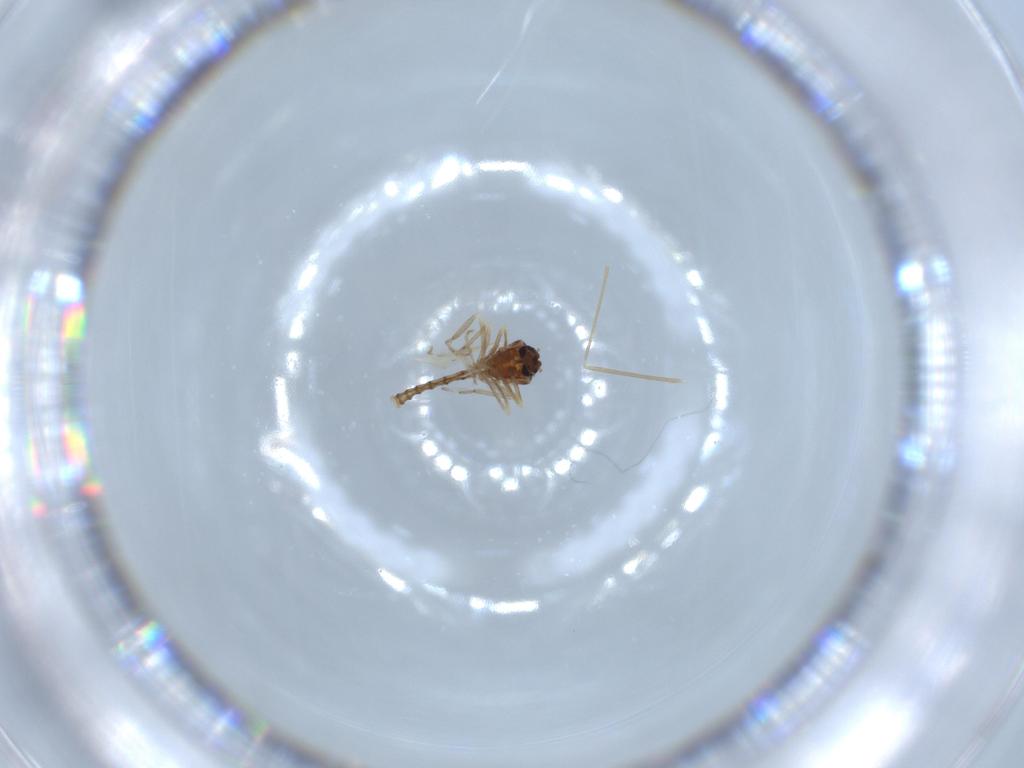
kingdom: Animalia
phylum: Arthropoda
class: Insecta
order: Diptera
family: Ceratopogonidae
